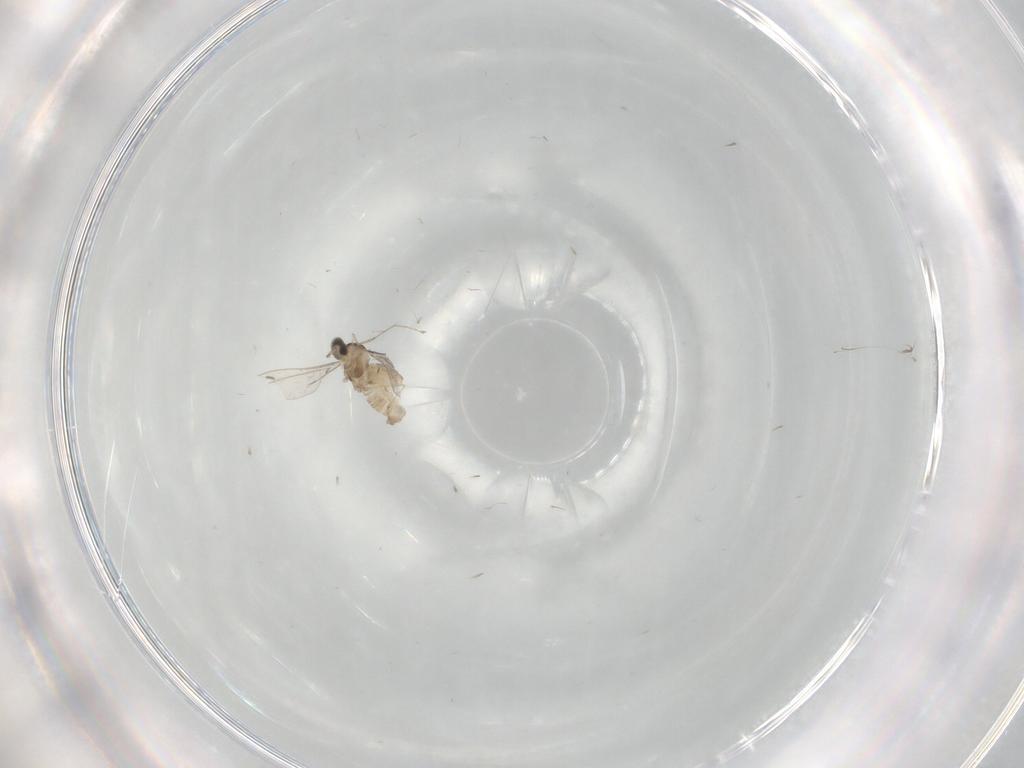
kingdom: Animalia
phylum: Arthropoda
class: Insecta
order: Diptera
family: Cecidomyiidae
